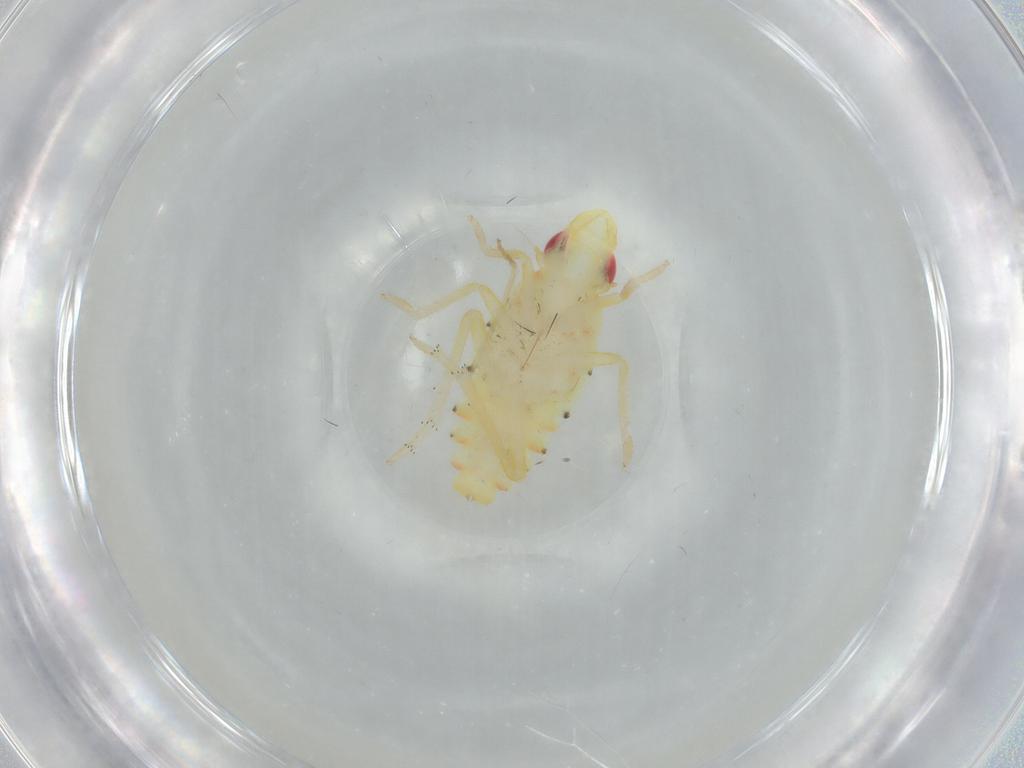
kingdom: Animalia
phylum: Arthropoda
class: Insecta
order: Hemiptera
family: Tropiduchidae
